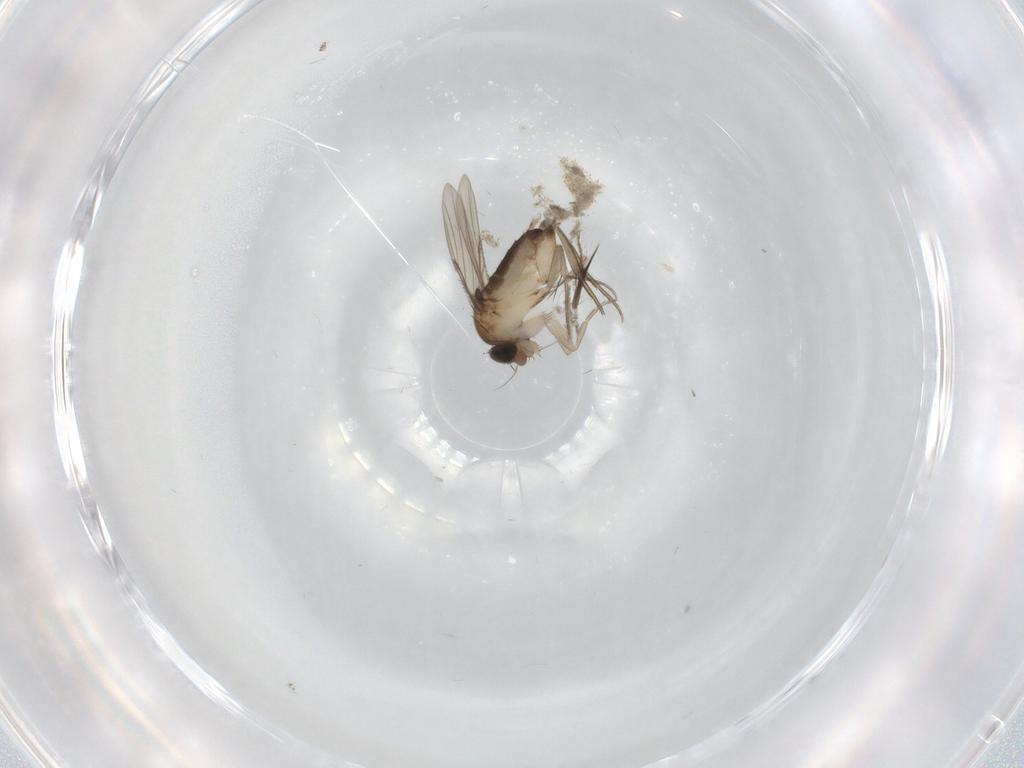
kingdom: Animalia
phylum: Arthropoda
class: Insecta
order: Diptera
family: Phoridae
